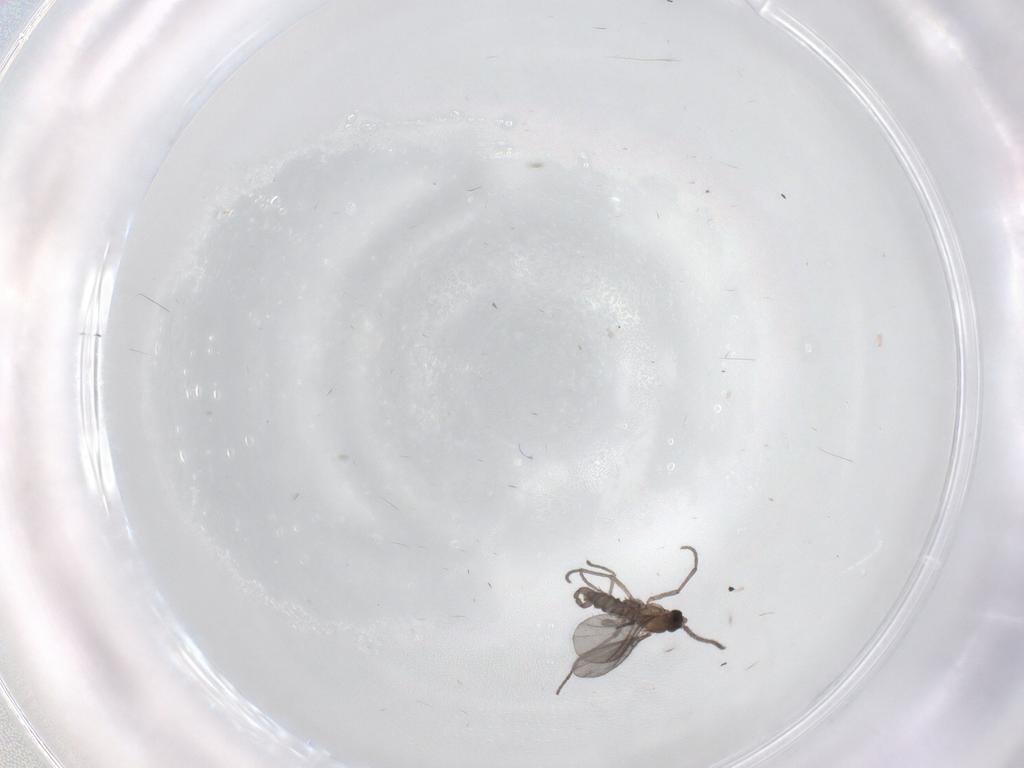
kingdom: Animalia
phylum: Arthropoda
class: Insecta
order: Diptera
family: Sciaridae
